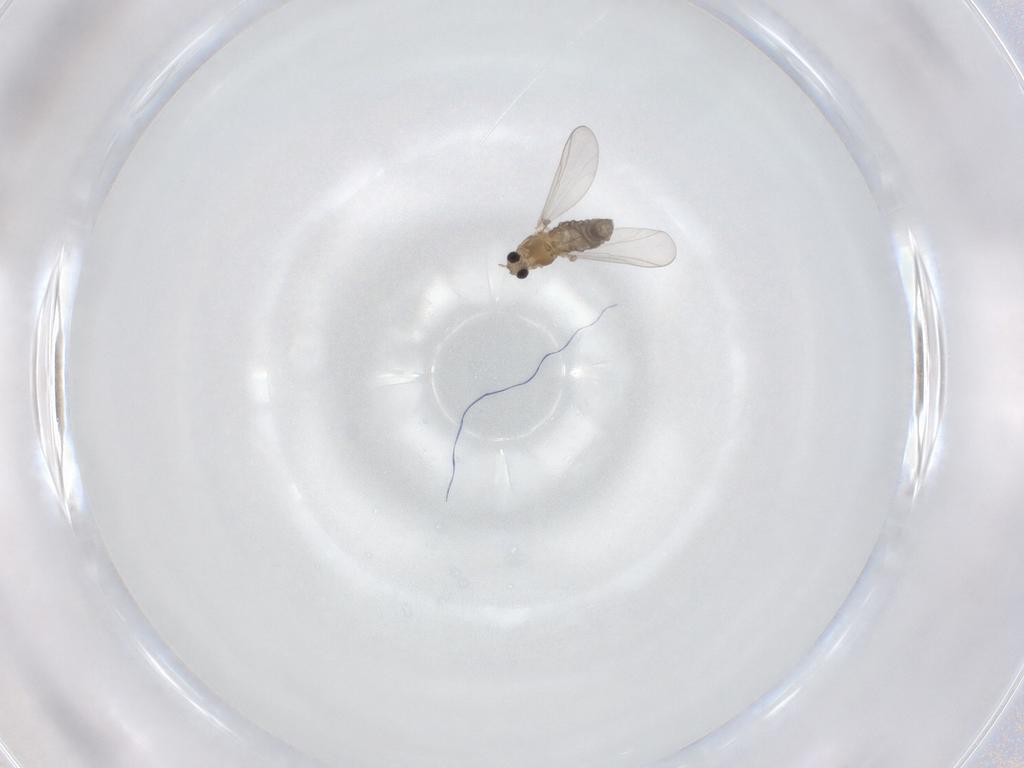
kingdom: Animalia
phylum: Arthropoda
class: Insecta
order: Diptera
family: Chironomidae
